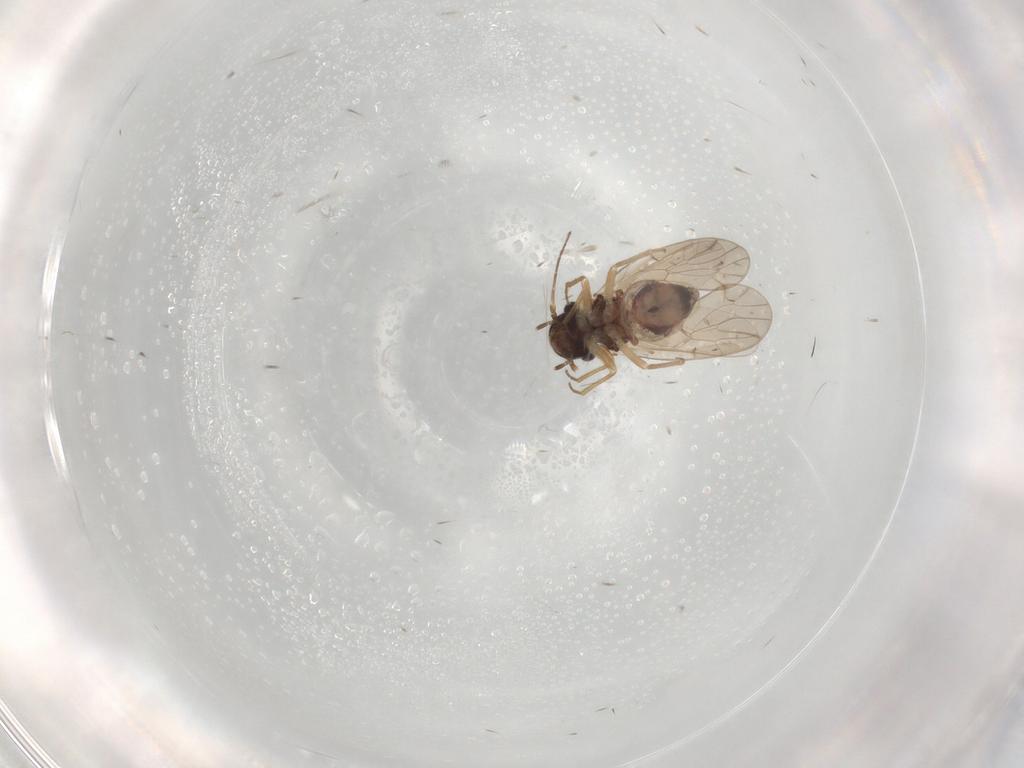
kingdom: Animalia
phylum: Arthropoda
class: Insecta
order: Psocodea
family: Ectopsocidae
